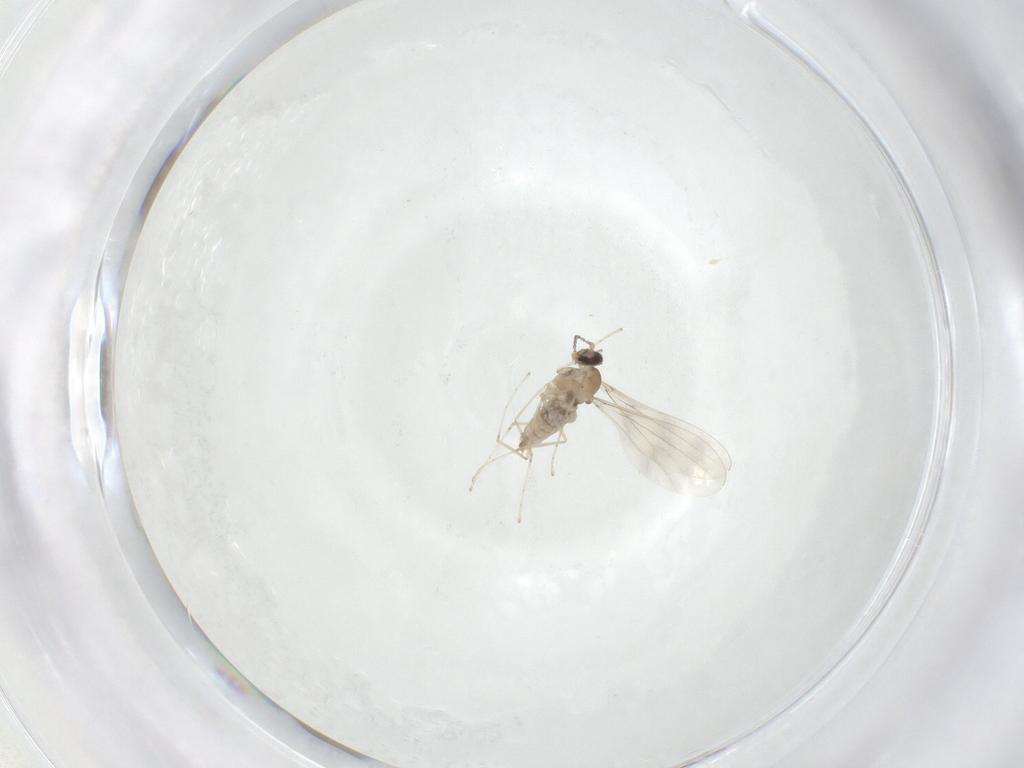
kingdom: Animalia
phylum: Arthropoda
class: Insecta
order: Diptera
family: Cecidomyiidae
